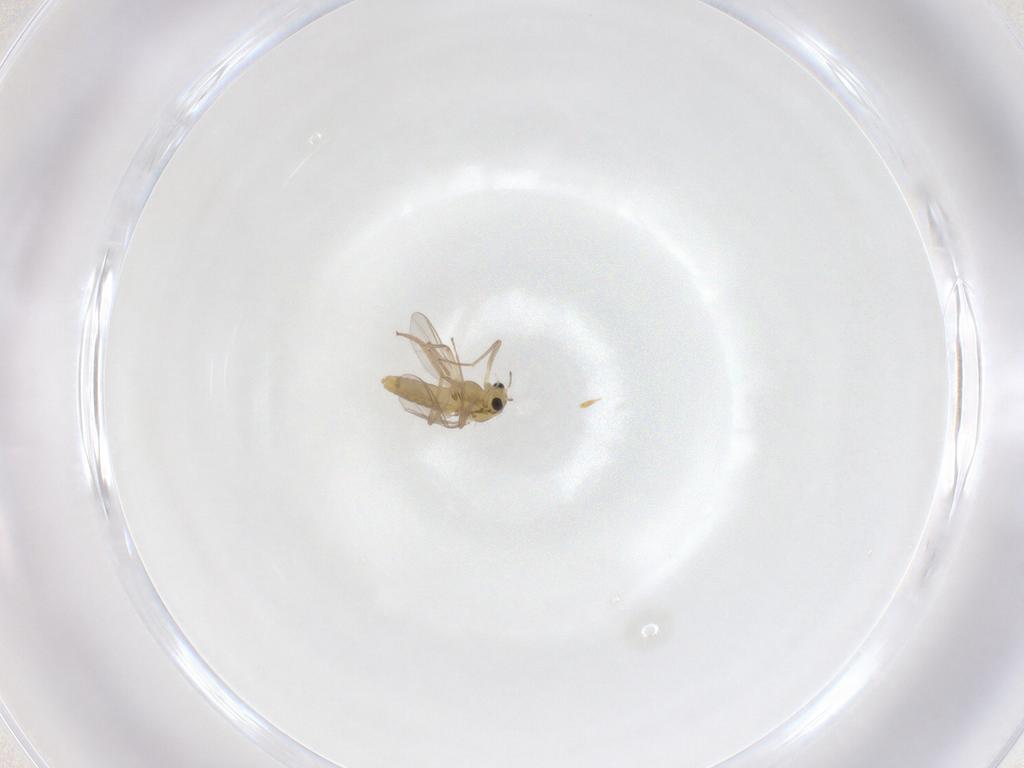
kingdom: Animalia
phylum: Arthropoda
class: Insecta
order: Diptera
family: Chironomidae
